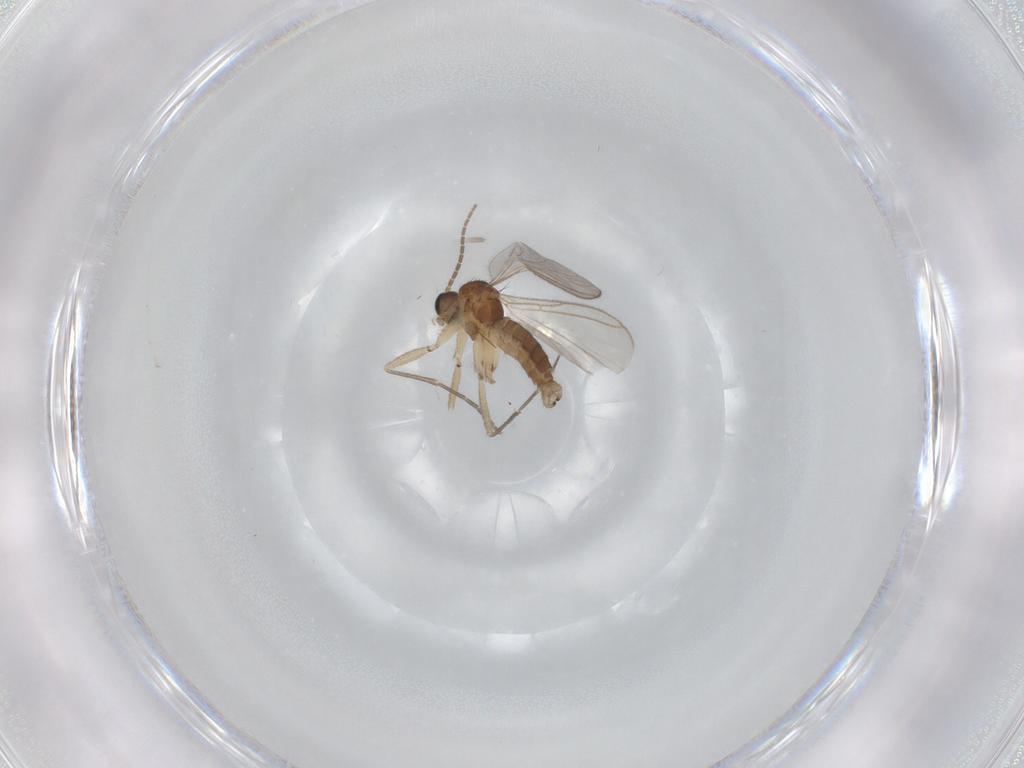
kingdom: Animalia
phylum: Arthropoda
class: Insecta
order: Diptera
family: Sciaridae
